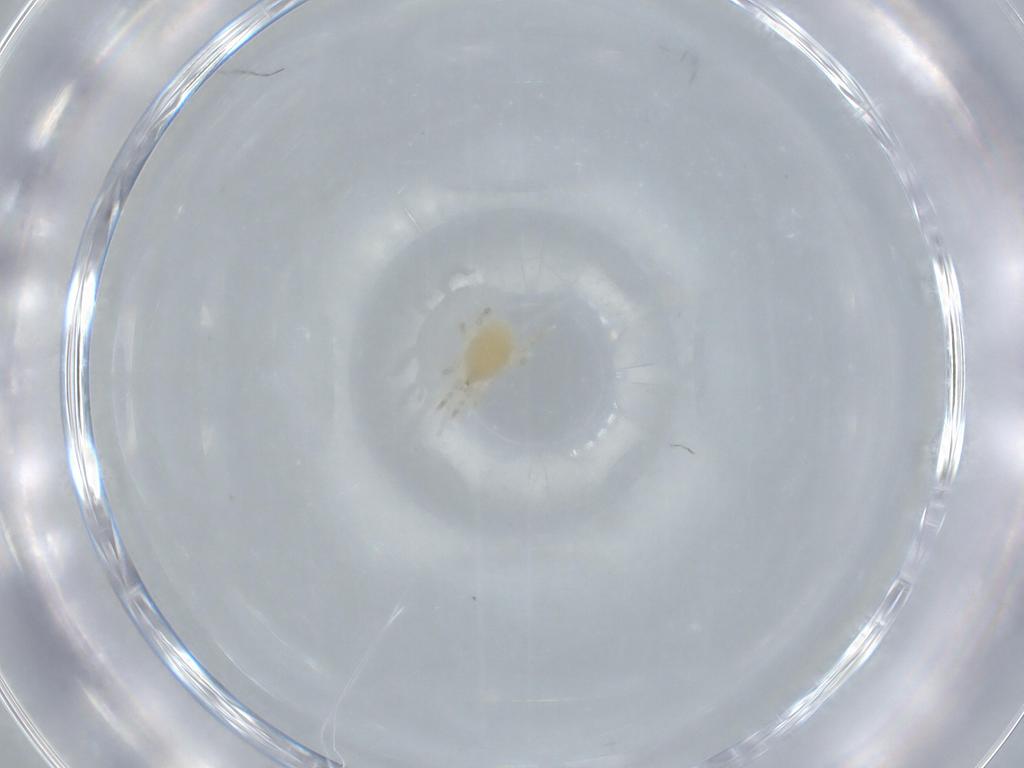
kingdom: Animalia
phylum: Arthropoda
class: Arachnida
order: Mesostigmata
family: Laelapidae
